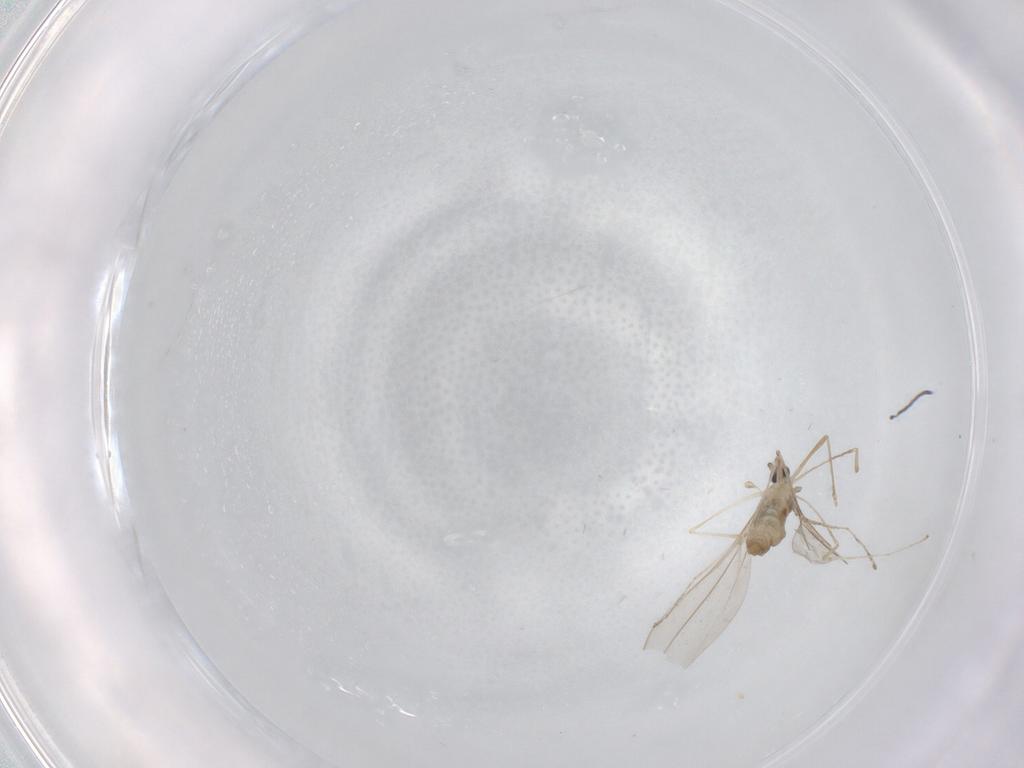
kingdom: Animalia
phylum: Arthropoda
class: Insecta
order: Diptera
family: Cecidomyiidae
